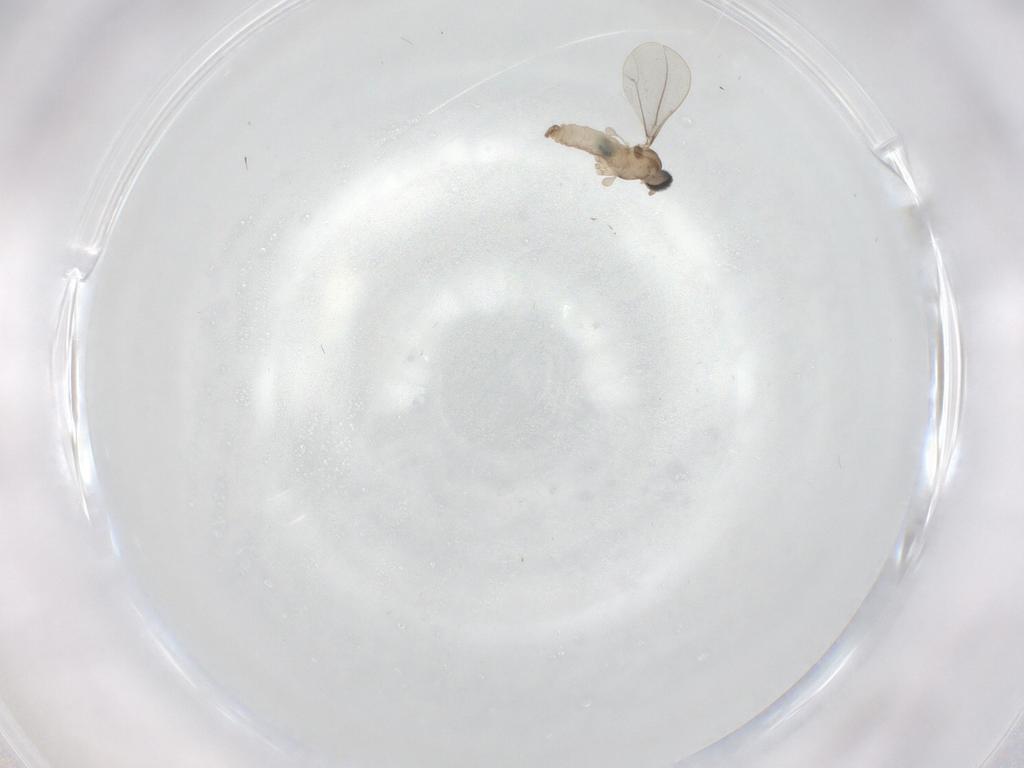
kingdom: Animalia
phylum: Arthropoda
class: Insecta
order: Diptera
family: Cecidomyiidae
